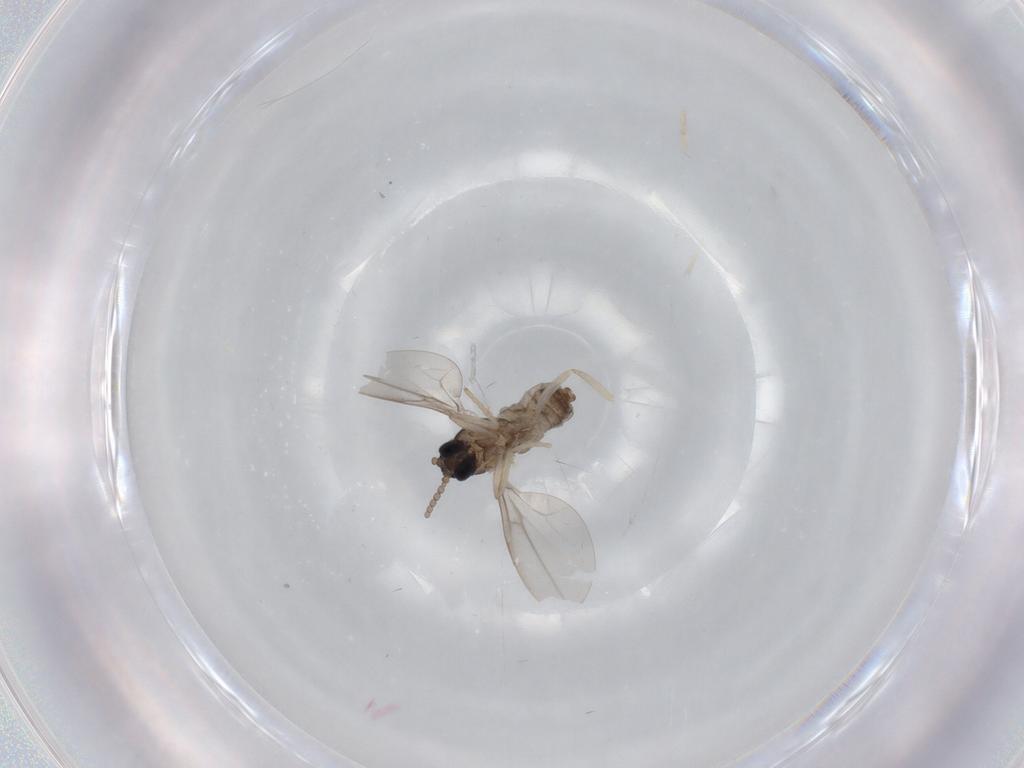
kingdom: Animalia
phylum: Arthropoda
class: Insecta
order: Diptera
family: Cecidomyiidae
